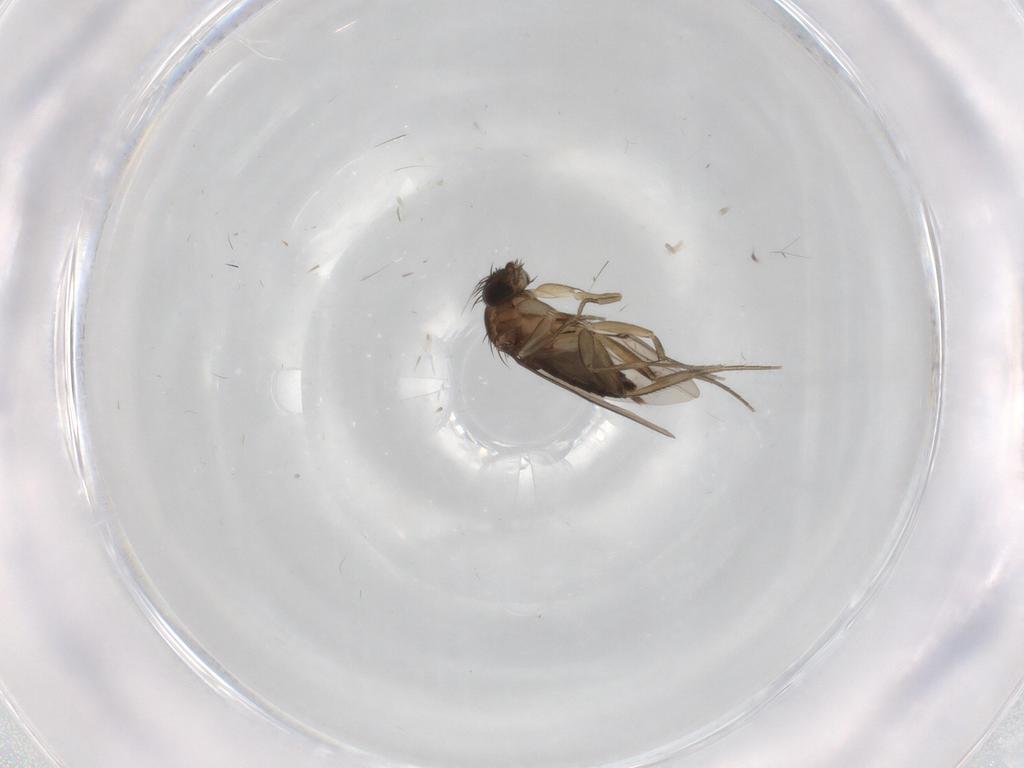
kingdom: Animalia
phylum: Arthropoda
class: Insecta
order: Diptera
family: Phoridae
